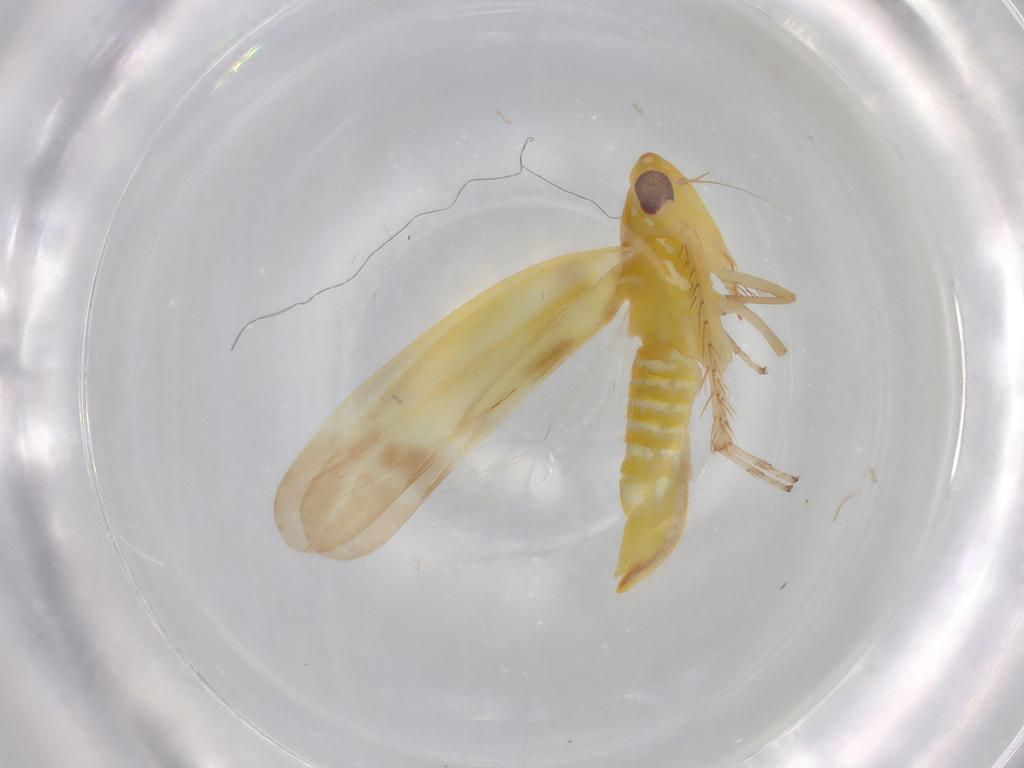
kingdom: Animalia
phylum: Arthropoda
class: Insecta
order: Hemiptera
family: Cicadellidae
